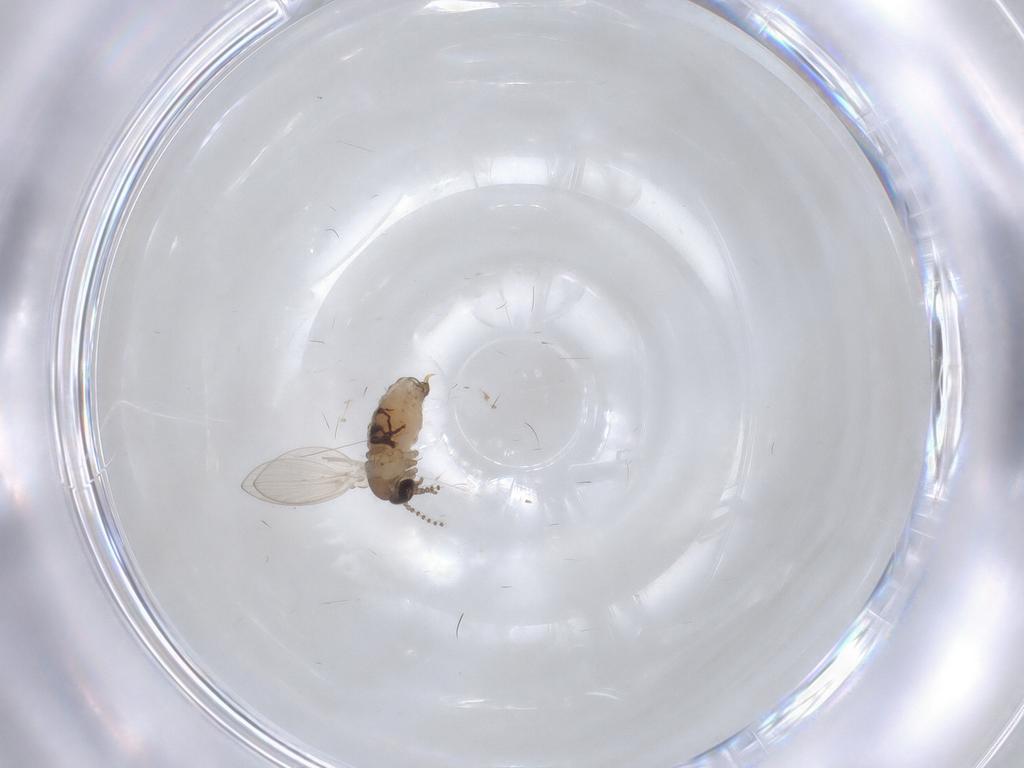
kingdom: Animalia
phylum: Arthropoda
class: Insecta
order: Diptera
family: Psychodidae
